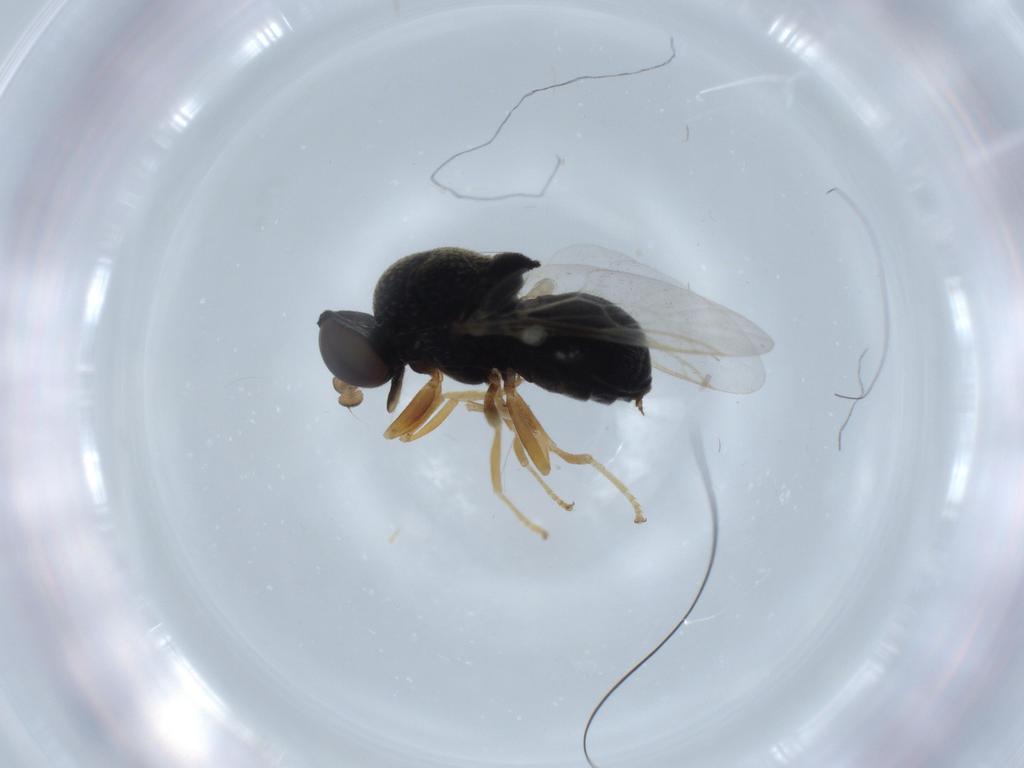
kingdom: Animalia
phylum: Arthropoda
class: Insecta
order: Diptera
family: Stratiomyidae
